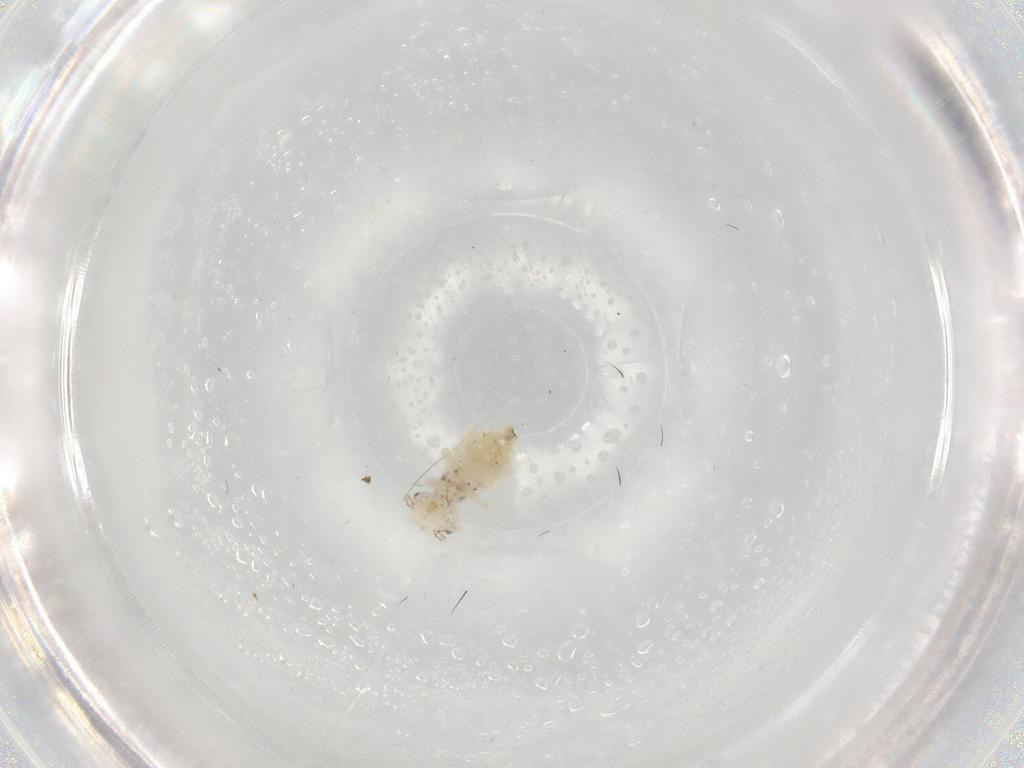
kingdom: Animalia
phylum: Arthropoda
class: Insecta
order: Psocodea
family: Pseudocaeciliidae
